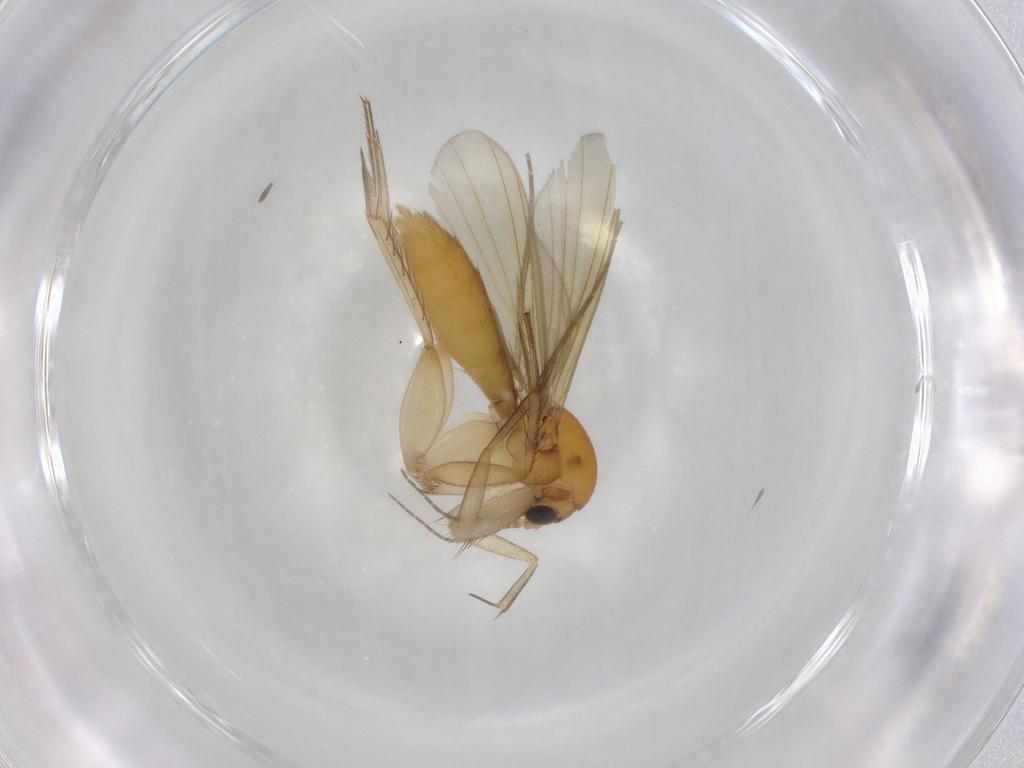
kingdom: Animalia
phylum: Arthropoda
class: Insecta
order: Diptera
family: Mycetophilidae
